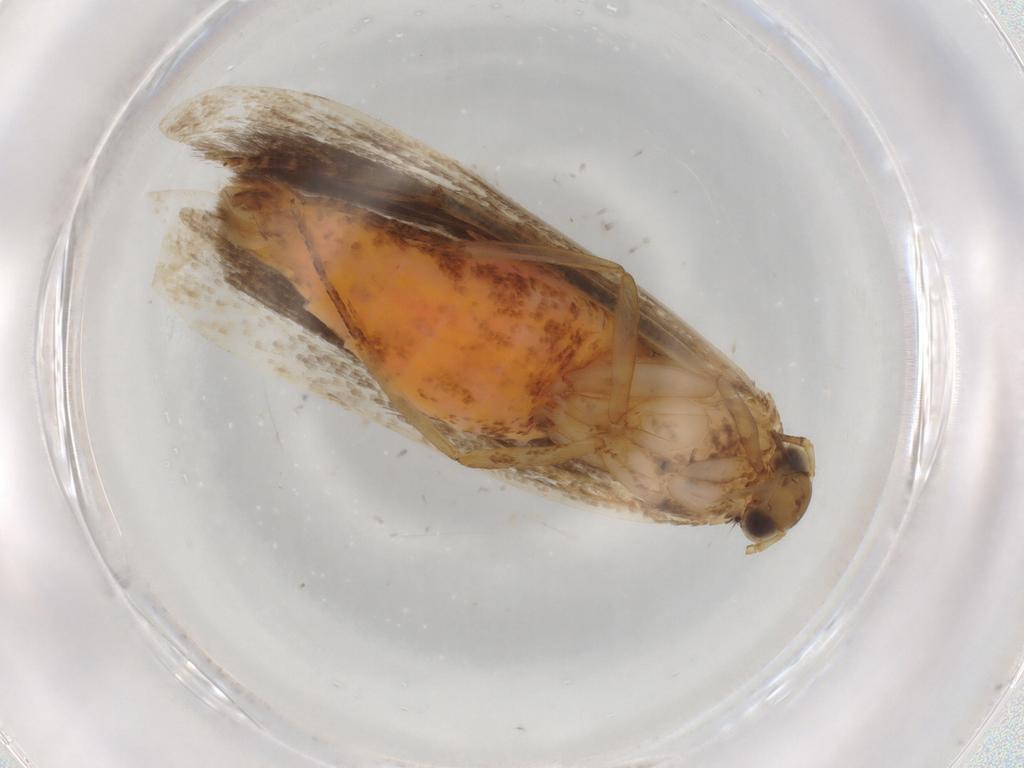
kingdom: Animalia
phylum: Arthropoda
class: Insecta
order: Lepidoptera
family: Gelechiidae
